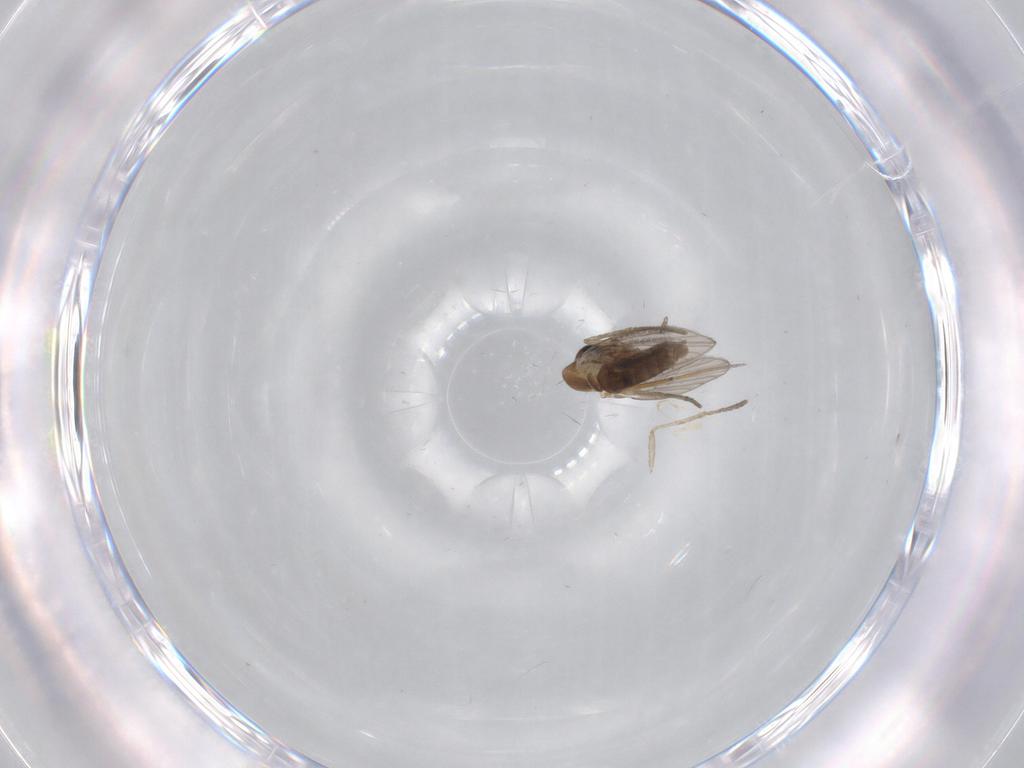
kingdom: Animalia
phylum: Arthropoda
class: Insecta
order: Diptera
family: Psychodidae
